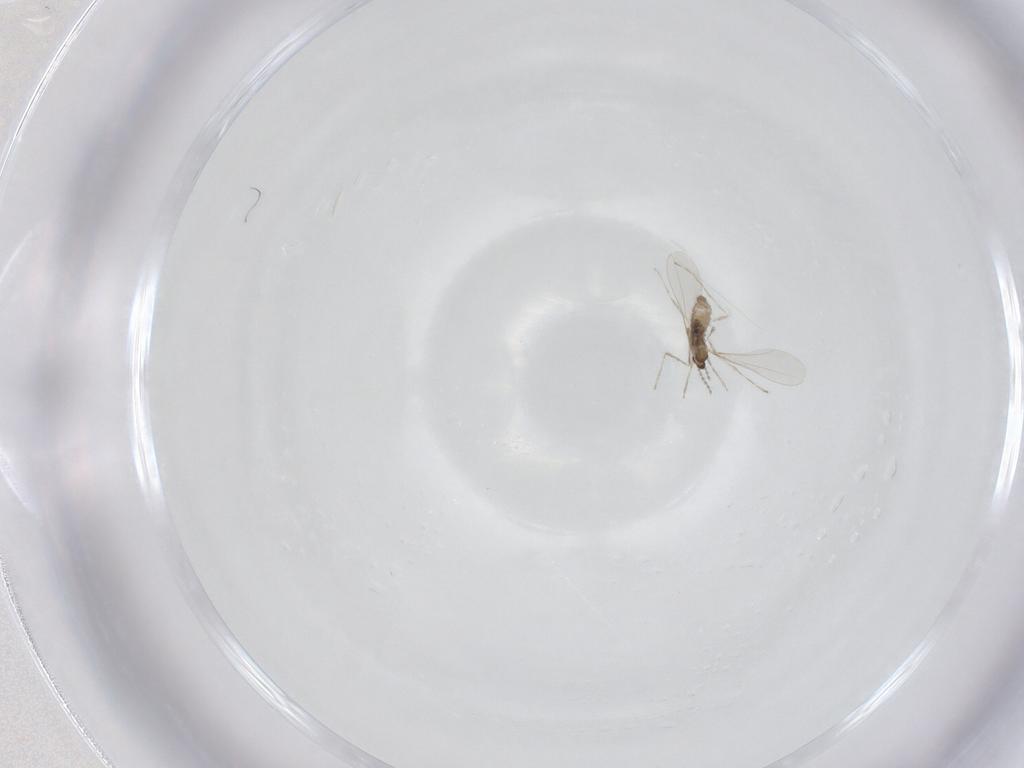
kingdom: Animalia
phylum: Arthropoda
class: Insecta
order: Diptera
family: Cecidomyiidae
